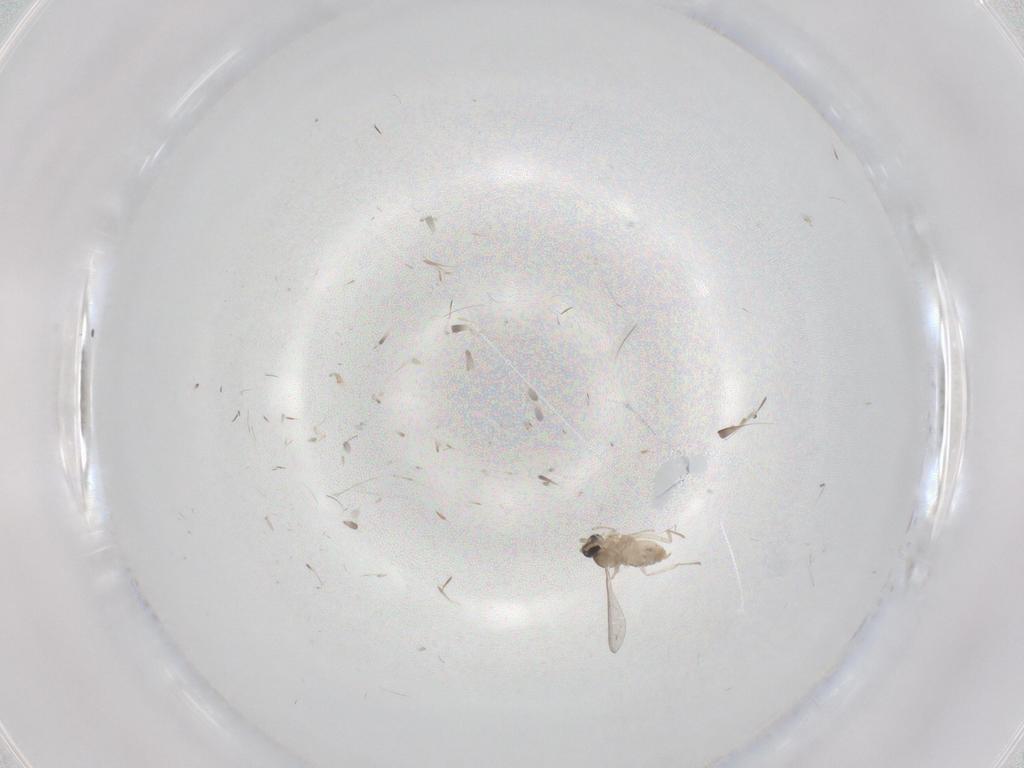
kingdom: Animalia
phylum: Arthropoda
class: Insecta
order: Diptera
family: Cecidomyiidae
